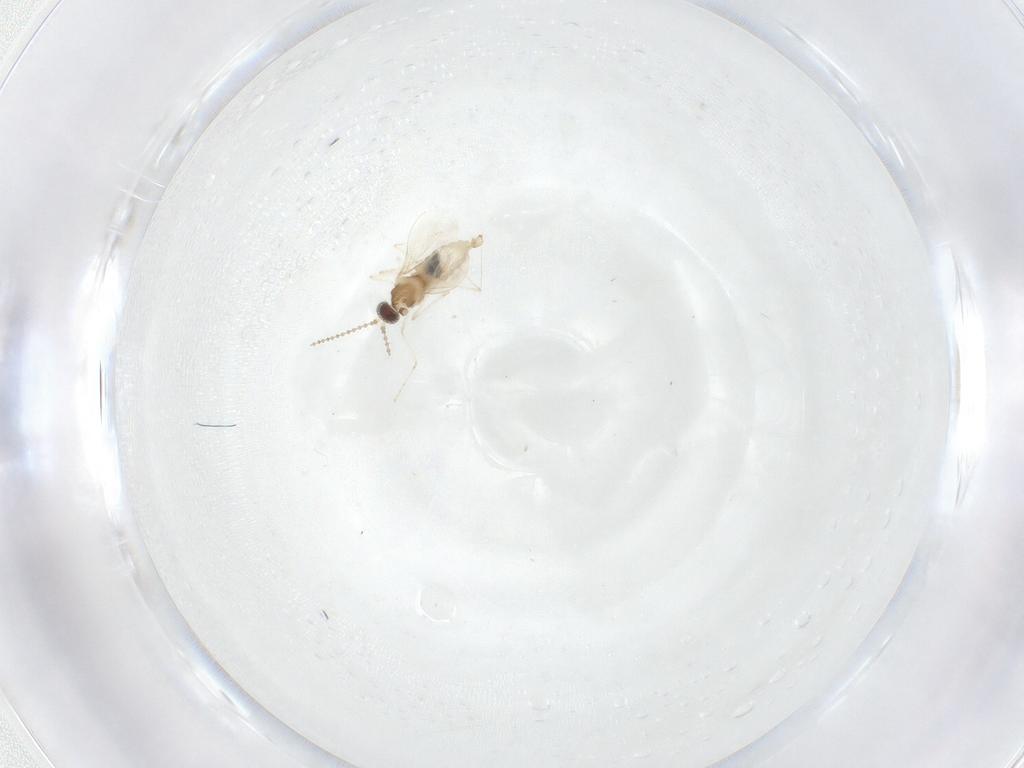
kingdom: Animalia
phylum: Arthropoda
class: Insecta
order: Diptera
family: Cecidomyiidae
